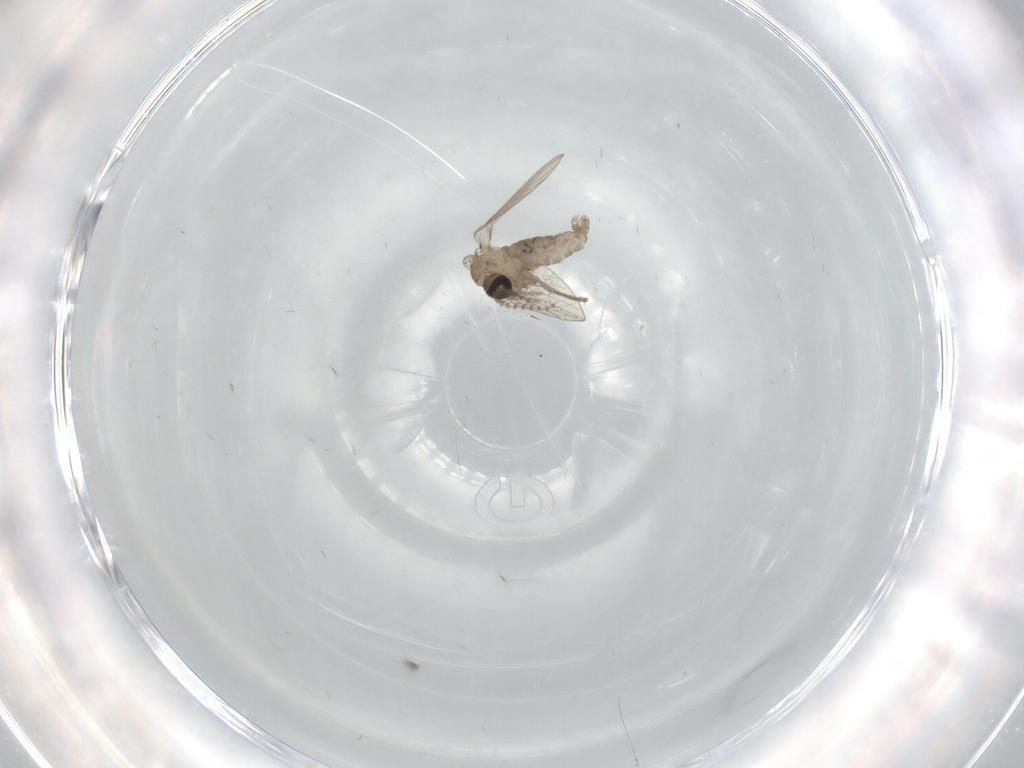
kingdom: Animalia
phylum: Arthropoda
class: Insecta
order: Diptera
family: Psychodidae
